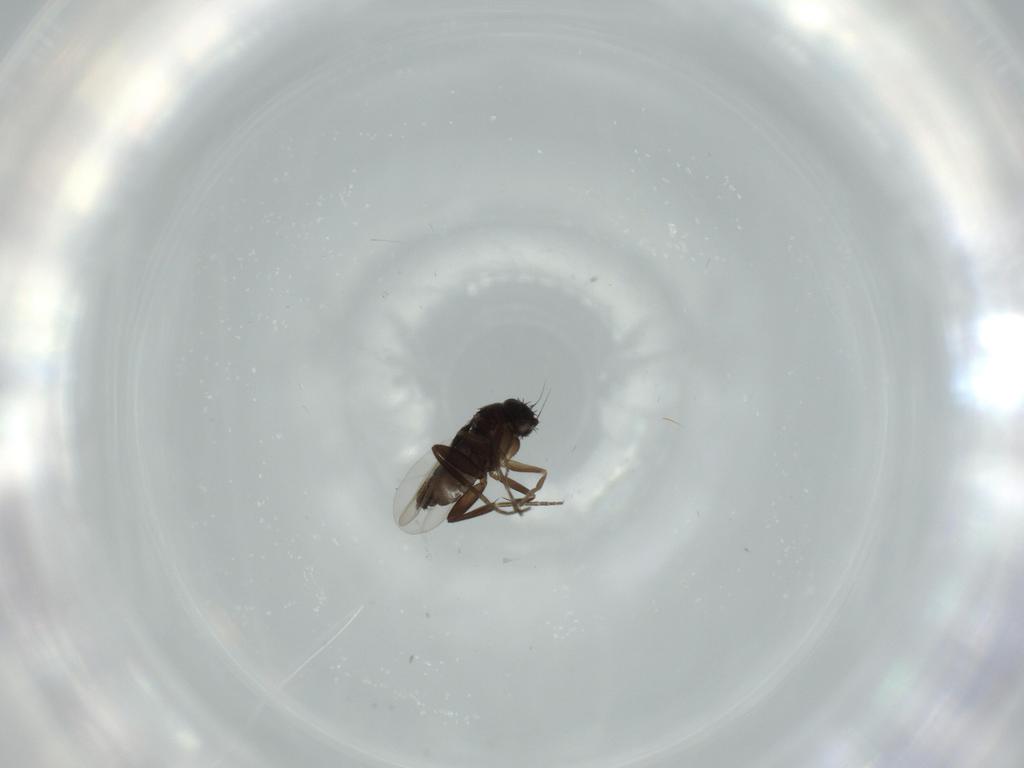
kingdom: Animalia
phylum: Arthropoda
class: Insecta
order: Diptera
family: Phoridae
